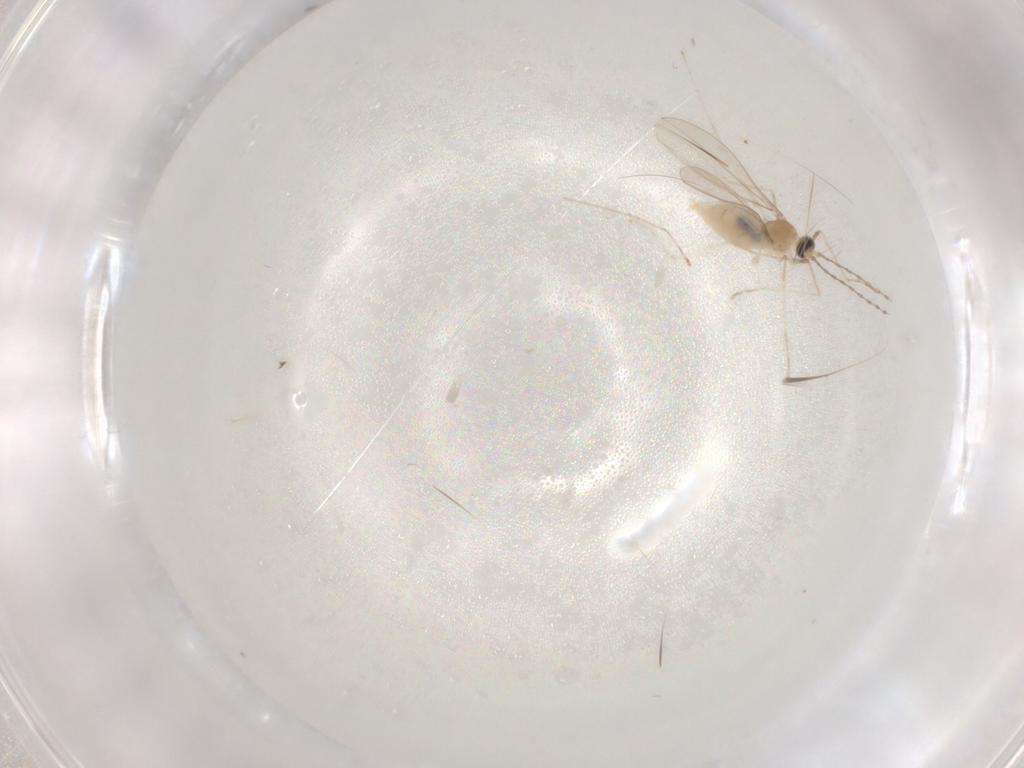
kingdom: Animalia
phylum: Arthropoda
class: Insecta
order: Diptera
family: Cecidomyiidae
